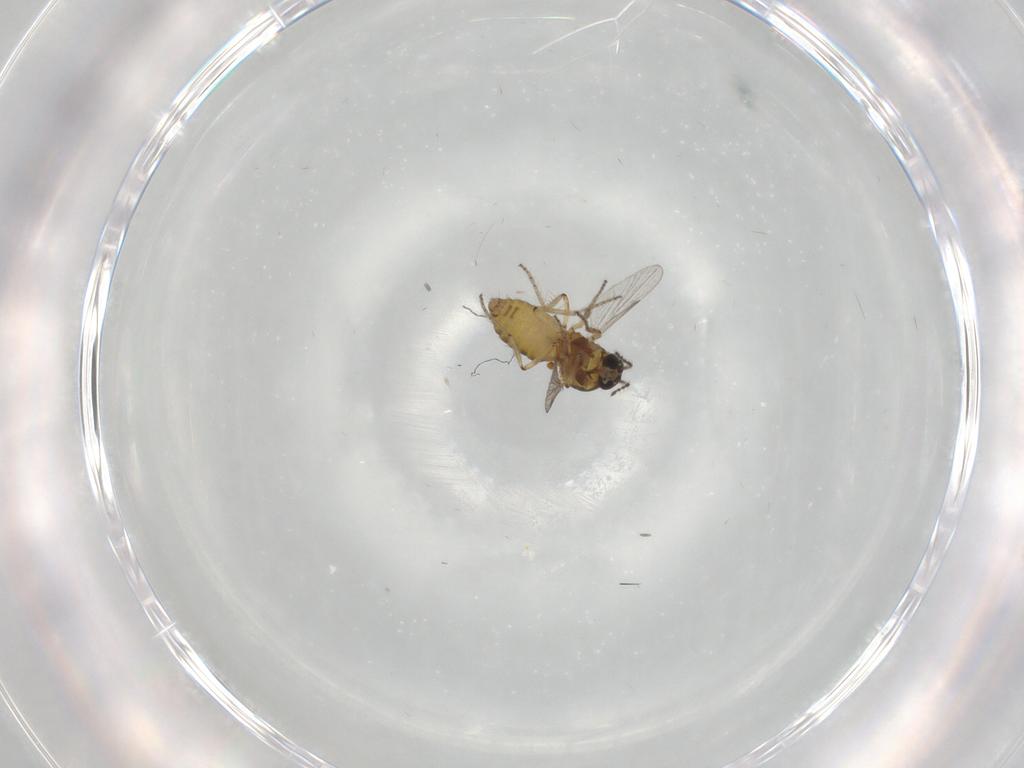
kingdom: Animalia
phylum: Arthropoda
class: Insecta
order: Diptera
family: Ceratopogonidae
